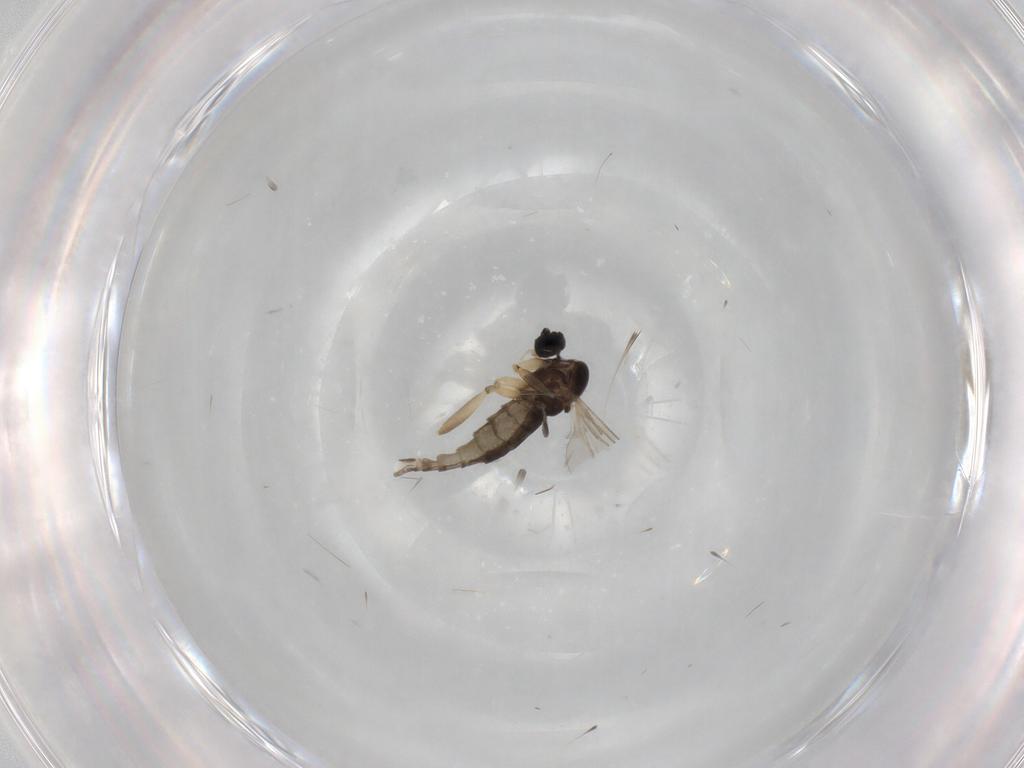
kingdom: Animalia
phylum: Arthropoda
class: Insecta
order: Diptera
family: Sciaridae
